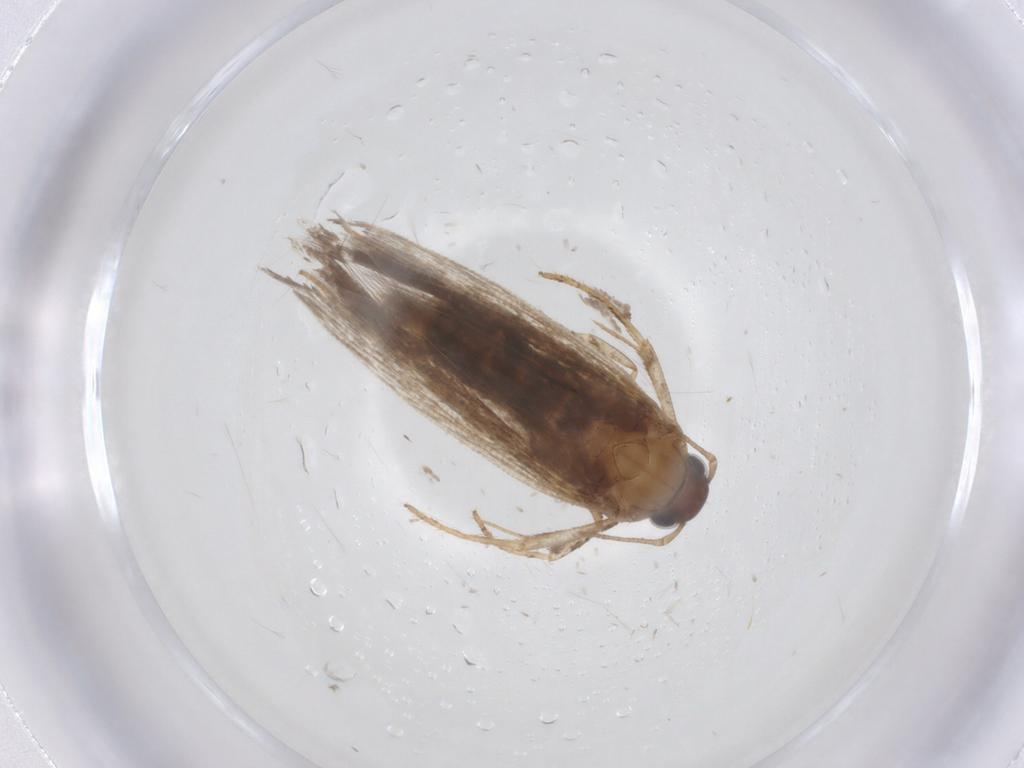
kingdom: Animalia
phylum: Arthropoda
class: Insecta
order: Lepidoptera
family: Gelechiidae
